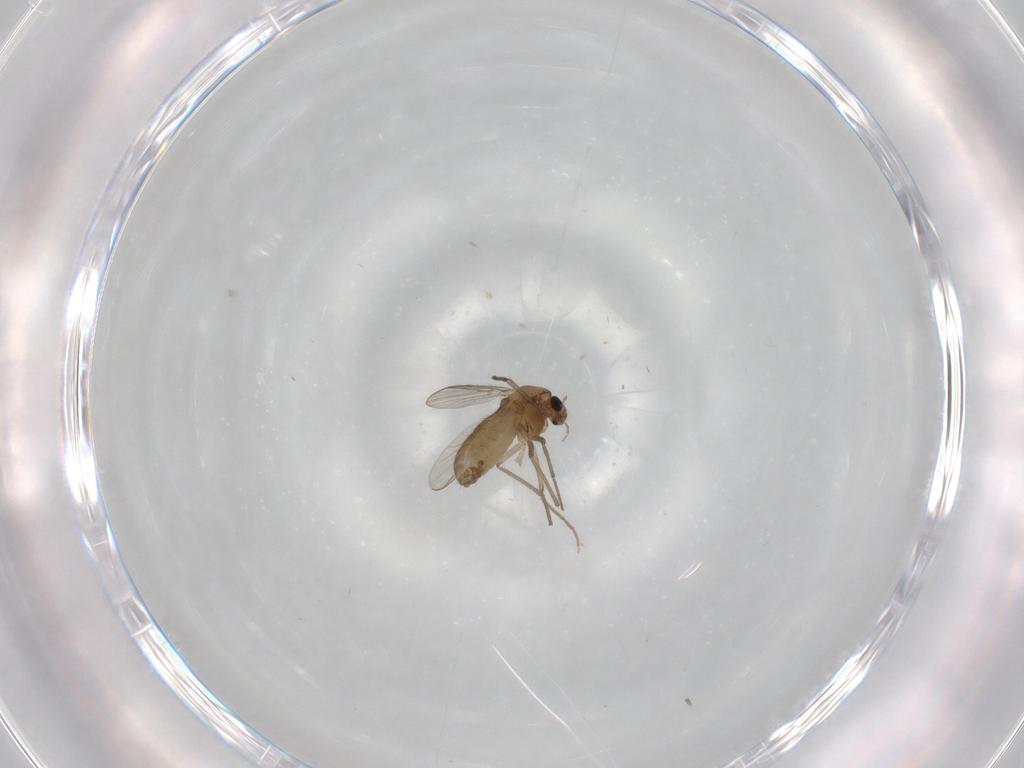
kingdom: Animalia
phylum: Arthropoda
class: Insecta
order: Diptera
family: Chironomidae
